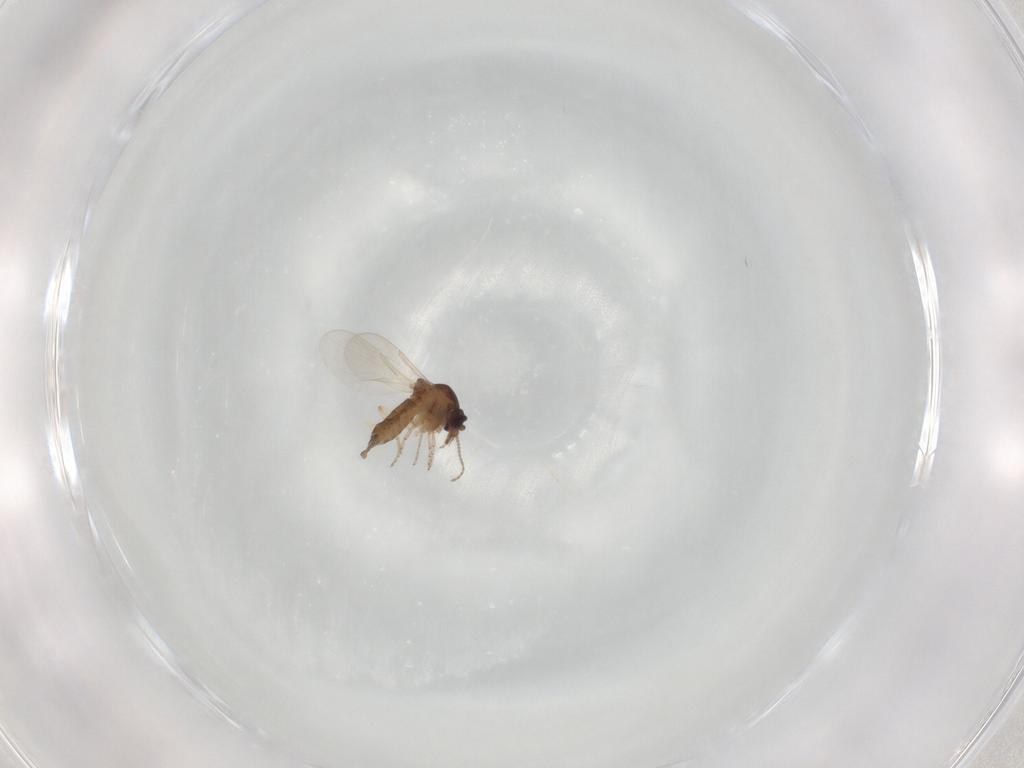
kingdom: Animalia
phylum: Arthropoda
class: Insecta
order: Diptera
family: Ceratopogonidae
